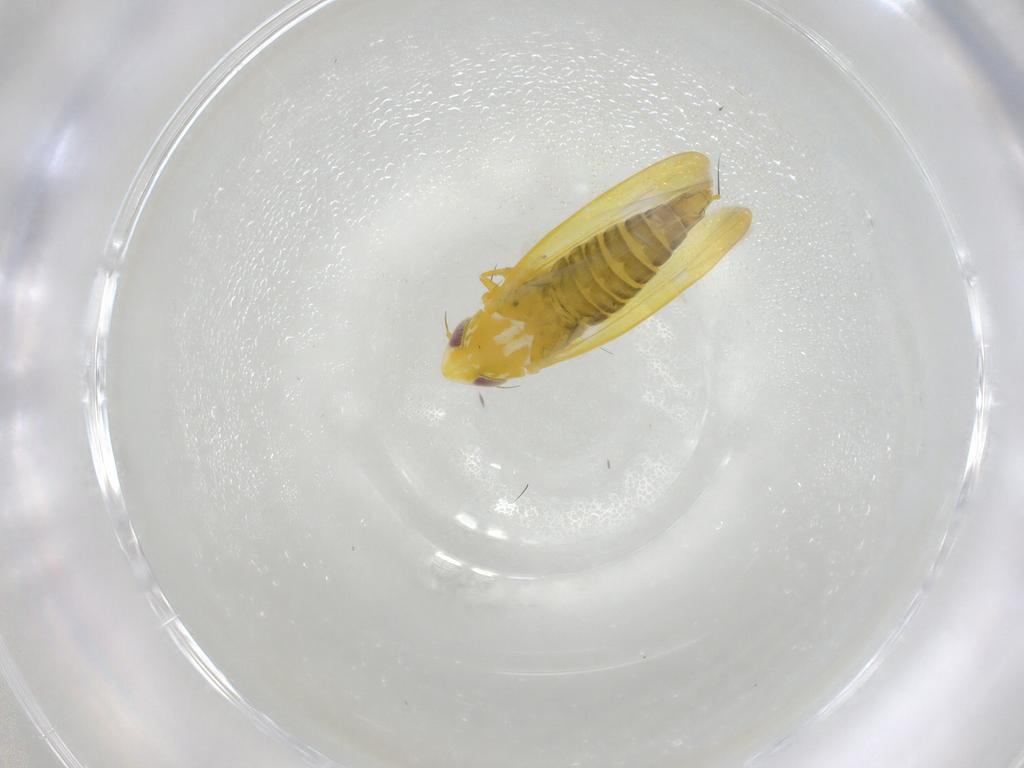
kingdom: Animalia
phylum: Arthropoda
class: Insecta
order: Hemiptera
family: Cicadellidae
